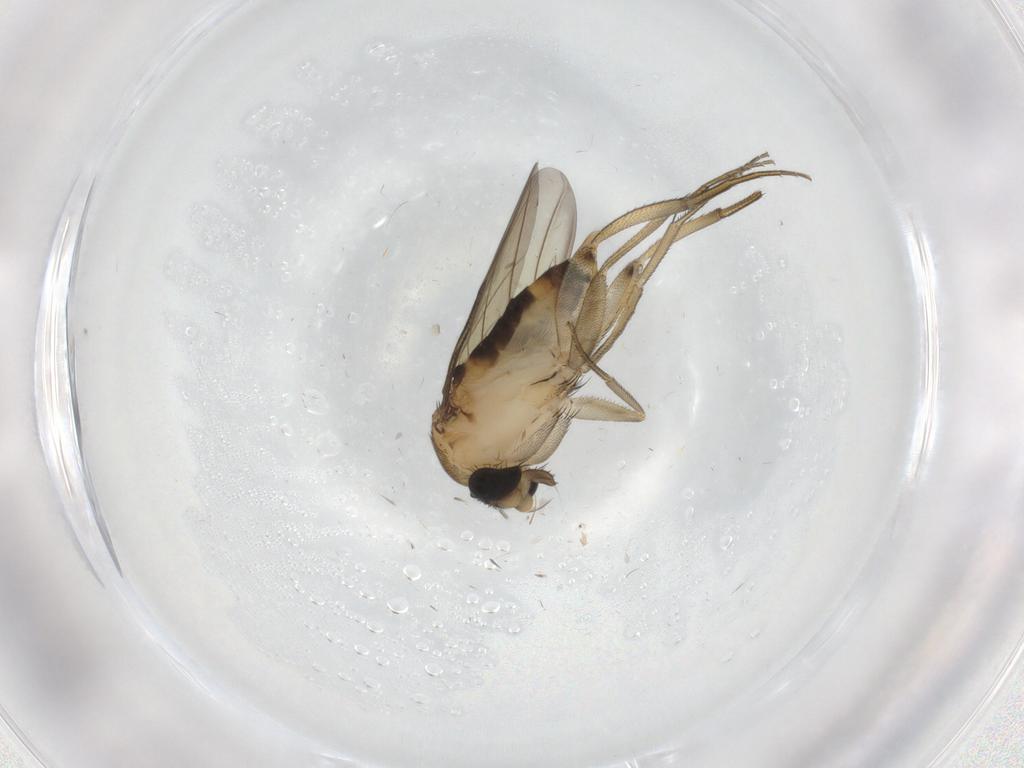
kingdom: Animalia
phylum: Arthropoda
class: Insecta
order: Diptera
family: Phoridae
